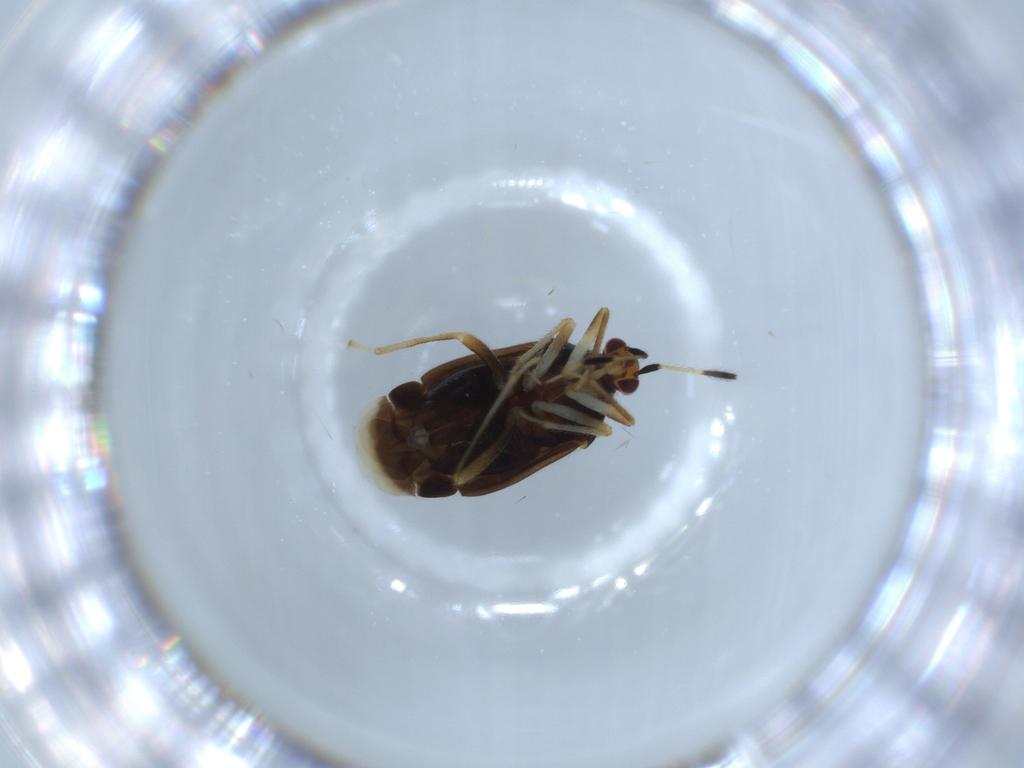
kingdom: Animalia
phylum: Arthropoda
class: Insecta
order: Hemiptera
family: Miridae
